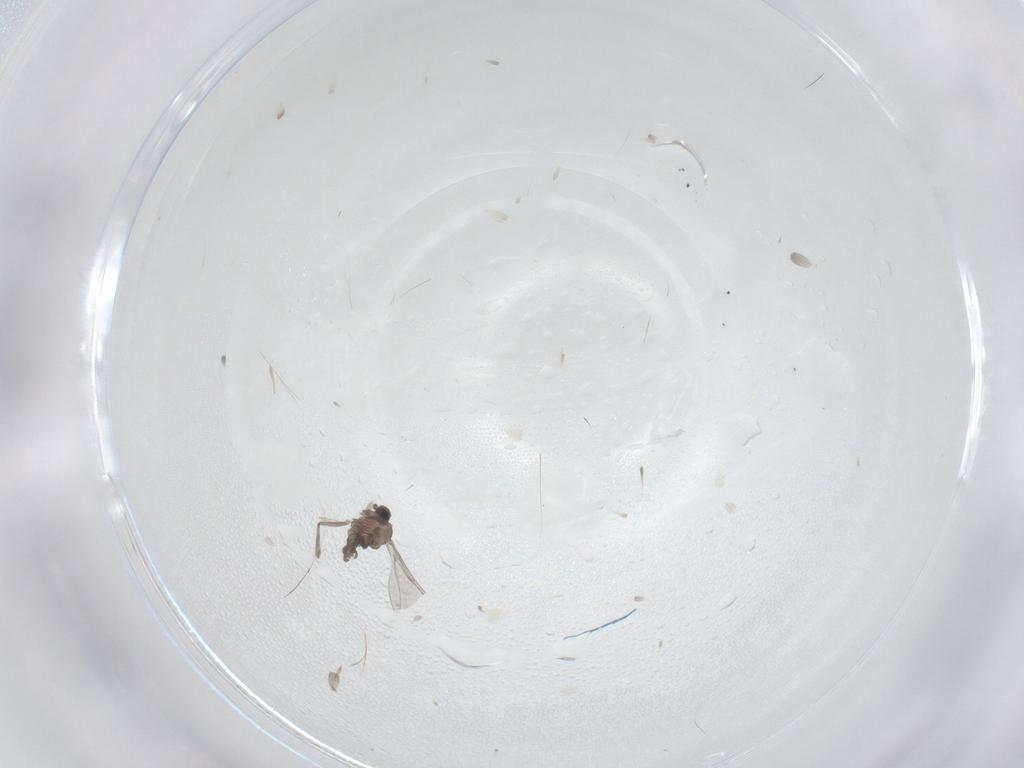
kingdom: Animalia
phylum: Arthropoda
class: Insecta
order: Diptera
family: Cecidomyiidae
